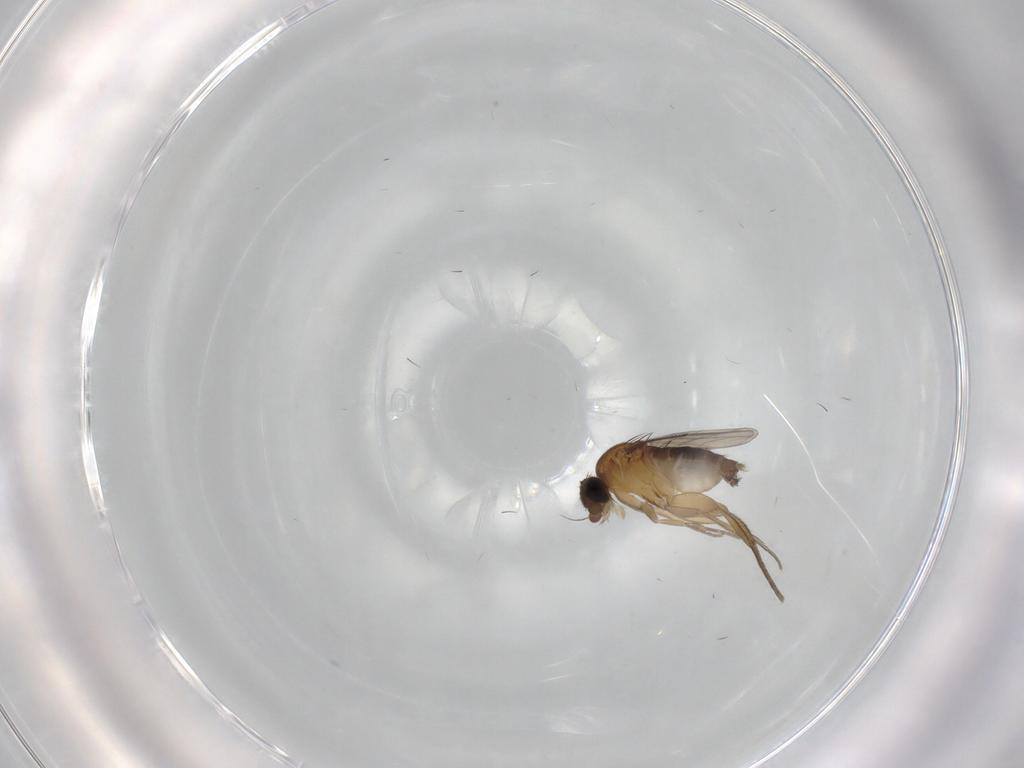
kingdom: Animalia
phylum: Arthropoda
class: Insecta
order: Diptera
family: Phoridae
